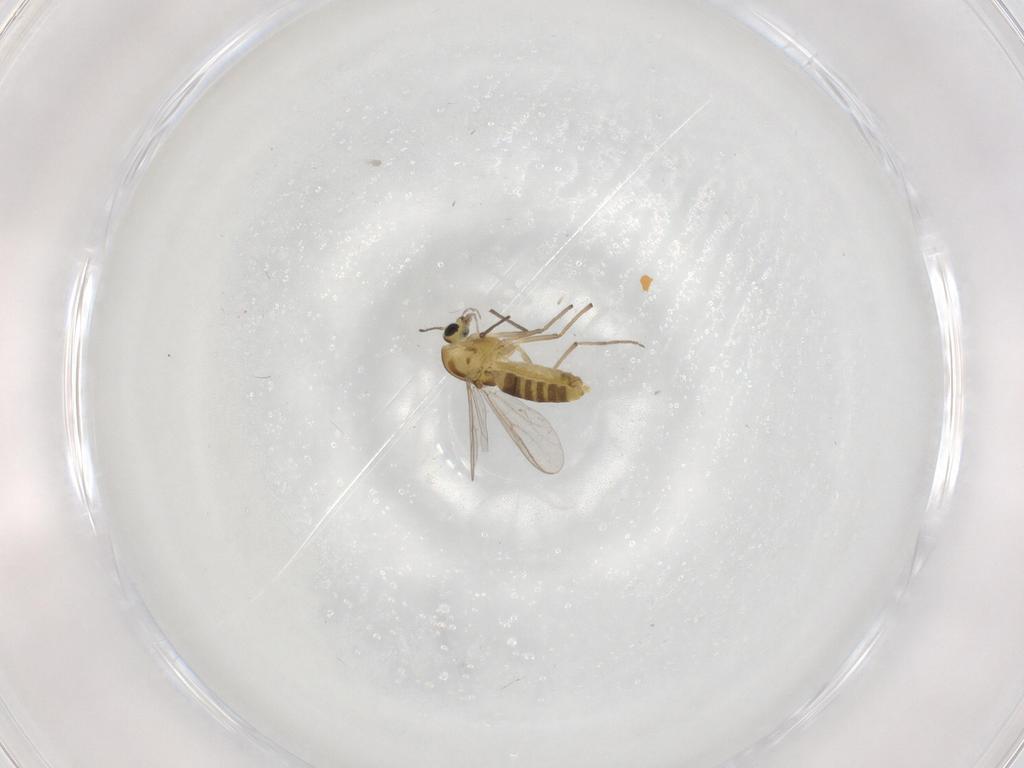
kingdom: Animalia
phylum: Arthropoda
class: Insecta
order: Diptera
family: Chironomidae
